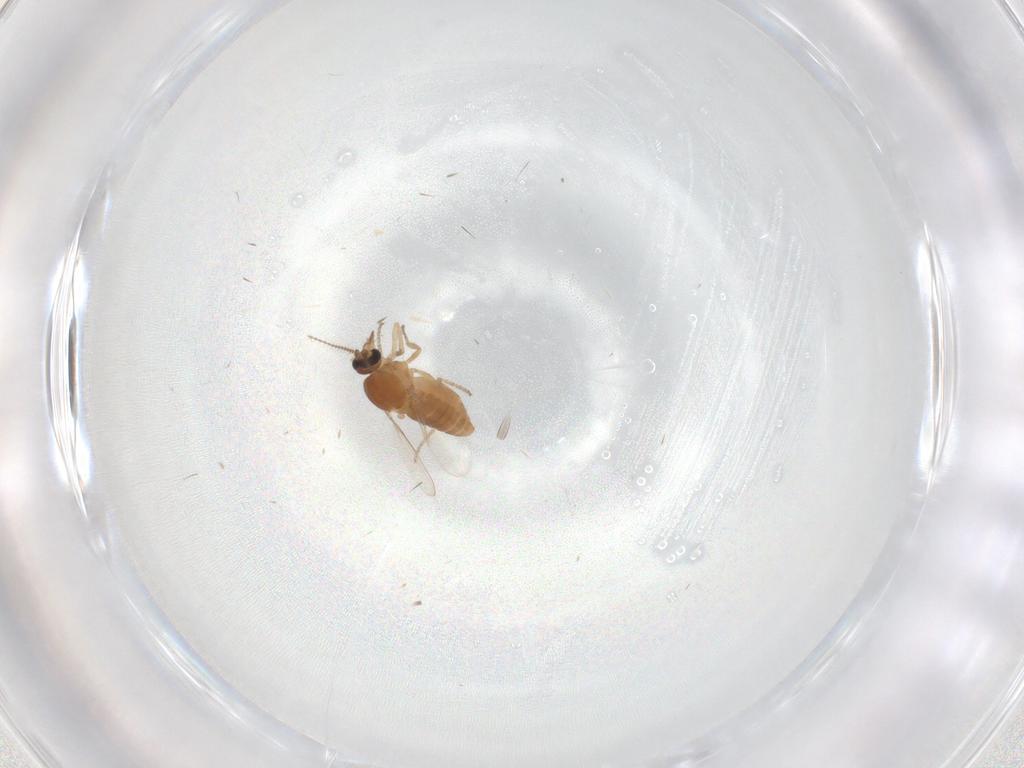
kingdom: Animalia
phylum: Arthropoda
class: Insecta
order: Diptera
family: Ceratopogonidae
